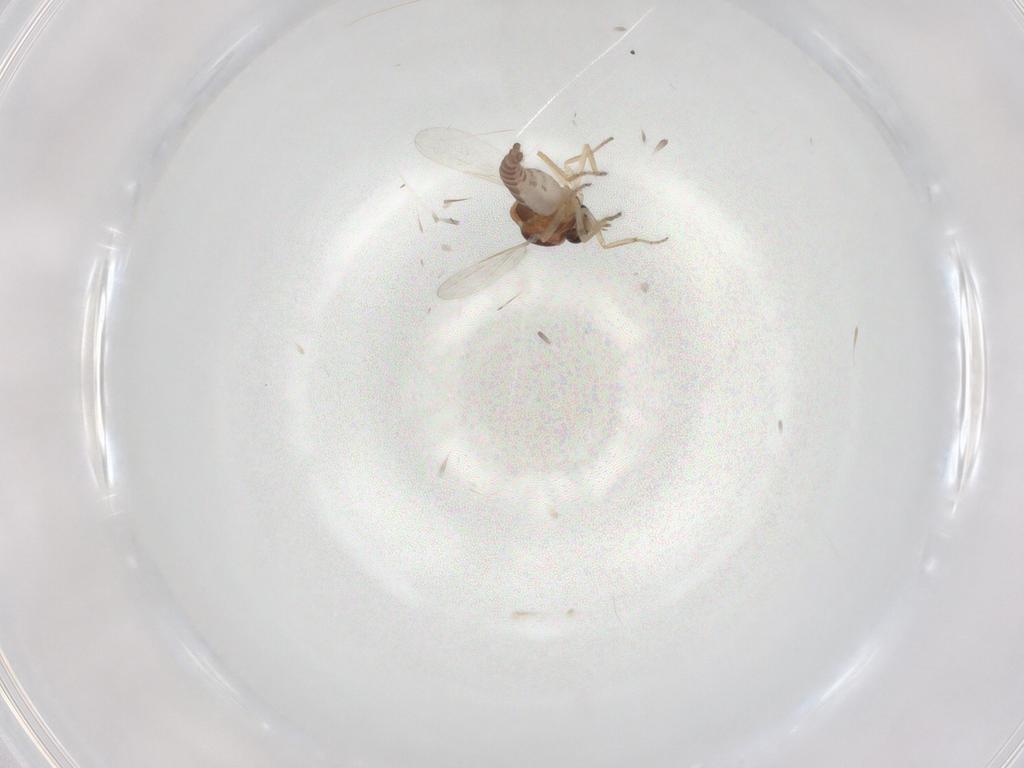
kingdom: Animalia
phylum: Arthropoda
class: Insecta
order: Diptera
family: Ceratopogonidae
